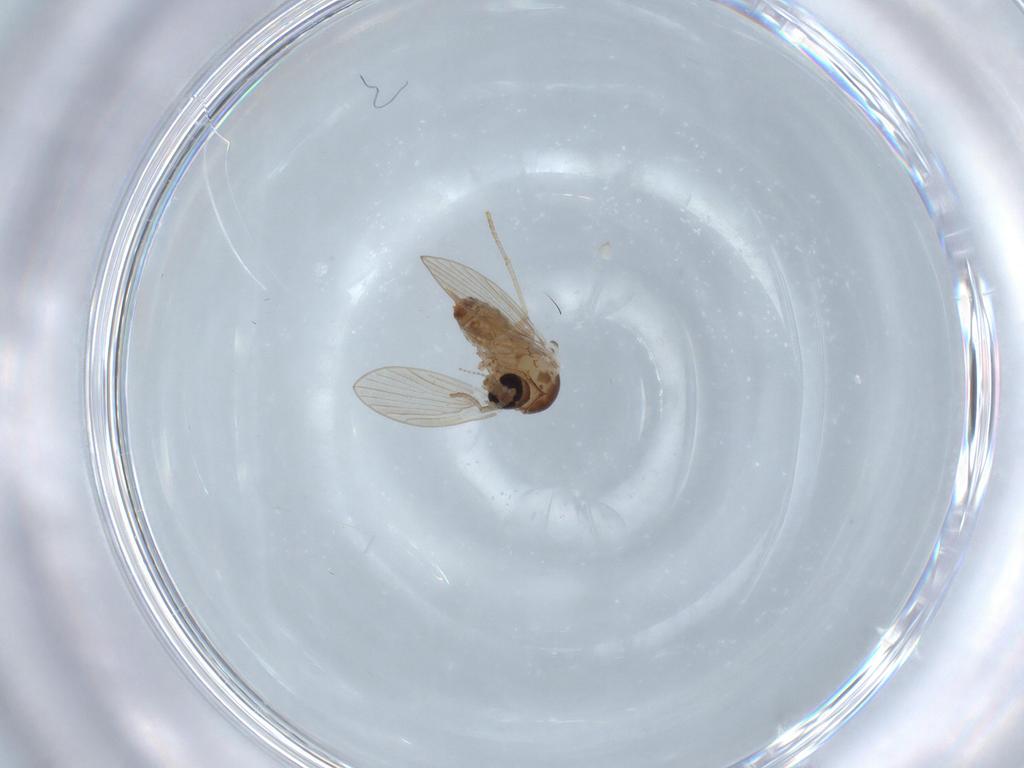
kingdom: Animalia
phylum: Arthropoda
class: Insecta
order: Diptera
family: Psychodidae
